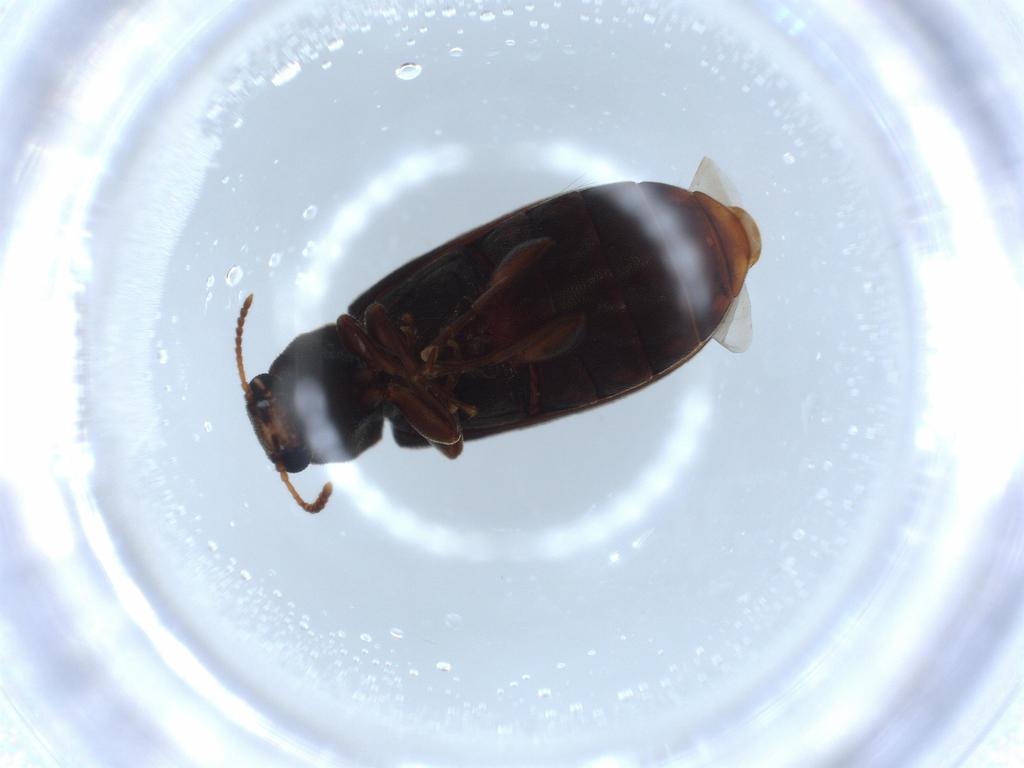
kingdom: Animalia
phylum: Arthropoda
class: Insecta
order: Coleoptera
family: Mycteridae
